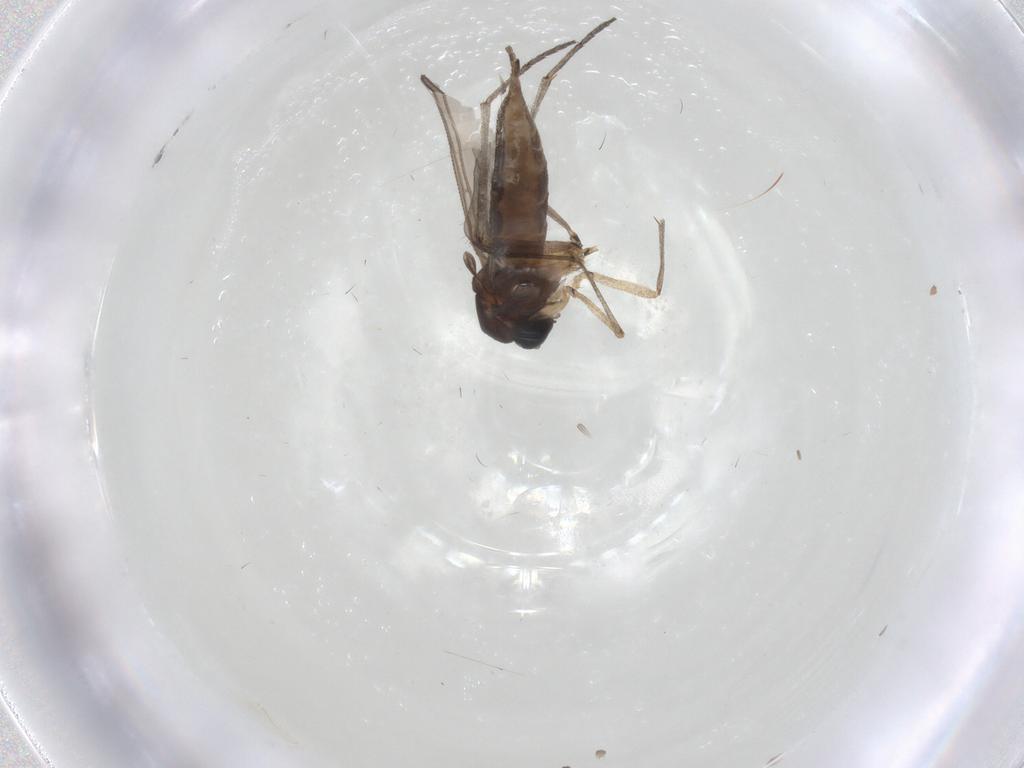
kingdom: Animalia
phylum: Arthropoda
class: Insecta
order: Diptera
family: Sciaridae
